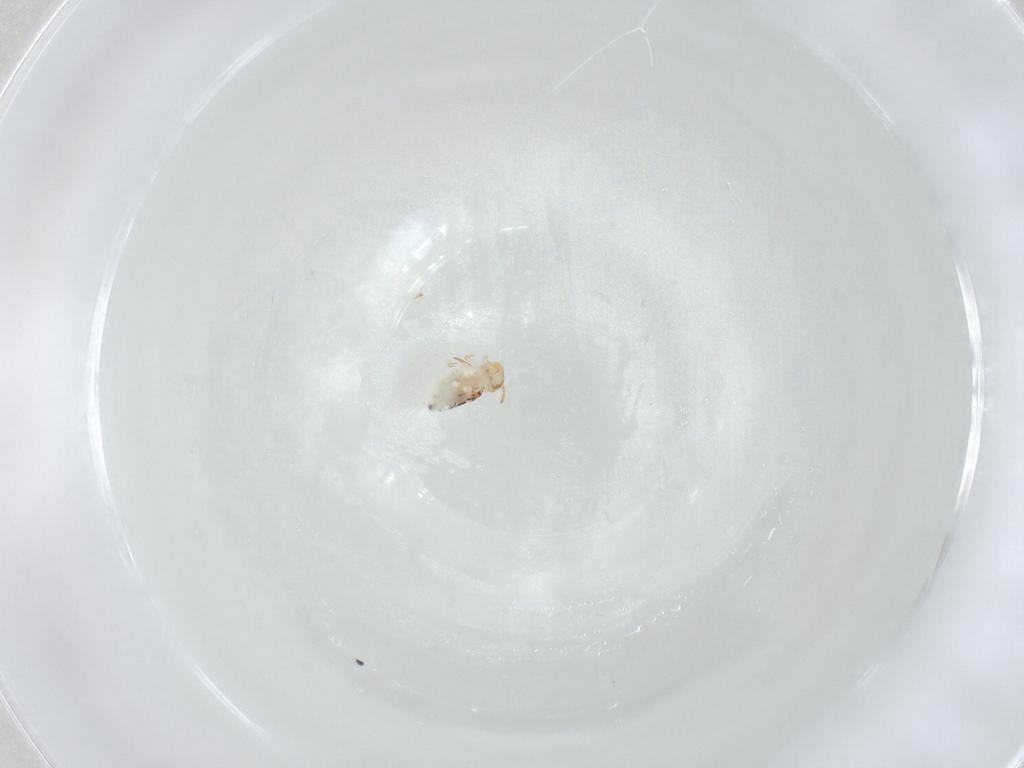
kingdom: Animalia
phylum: Arthropoda
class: Collembola
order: Symphypleona
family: Bourletiellidae
